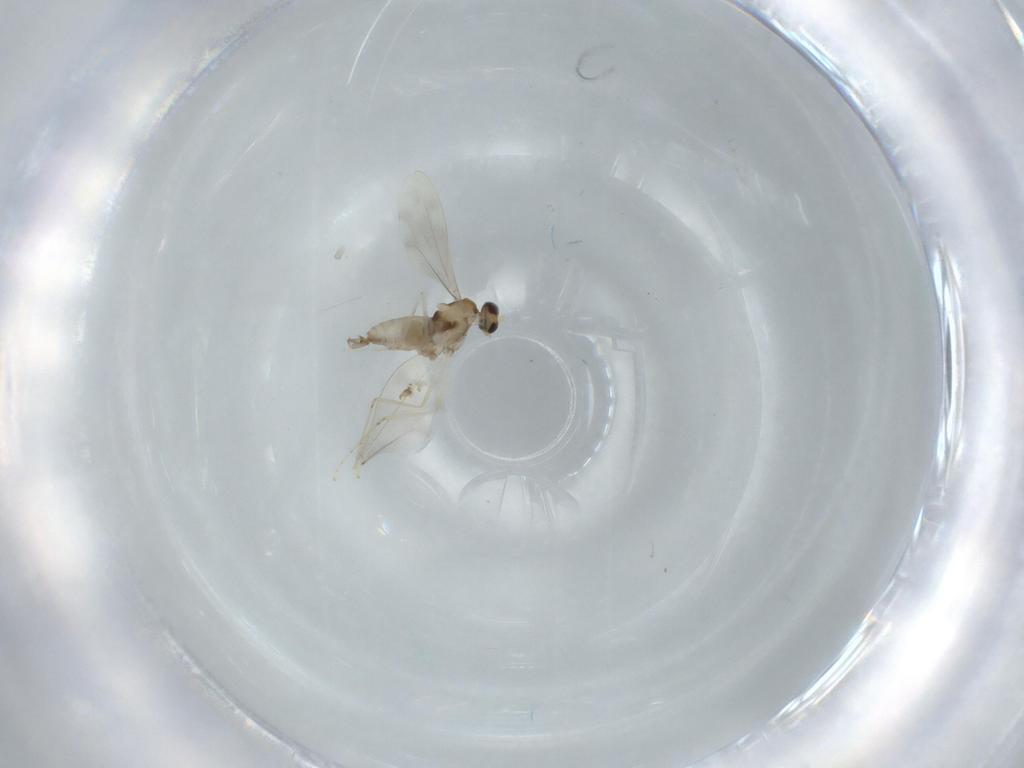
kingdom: Animalia
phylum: Arthropoda
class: Insecta
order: Diptera
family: Cecidomyiidae
